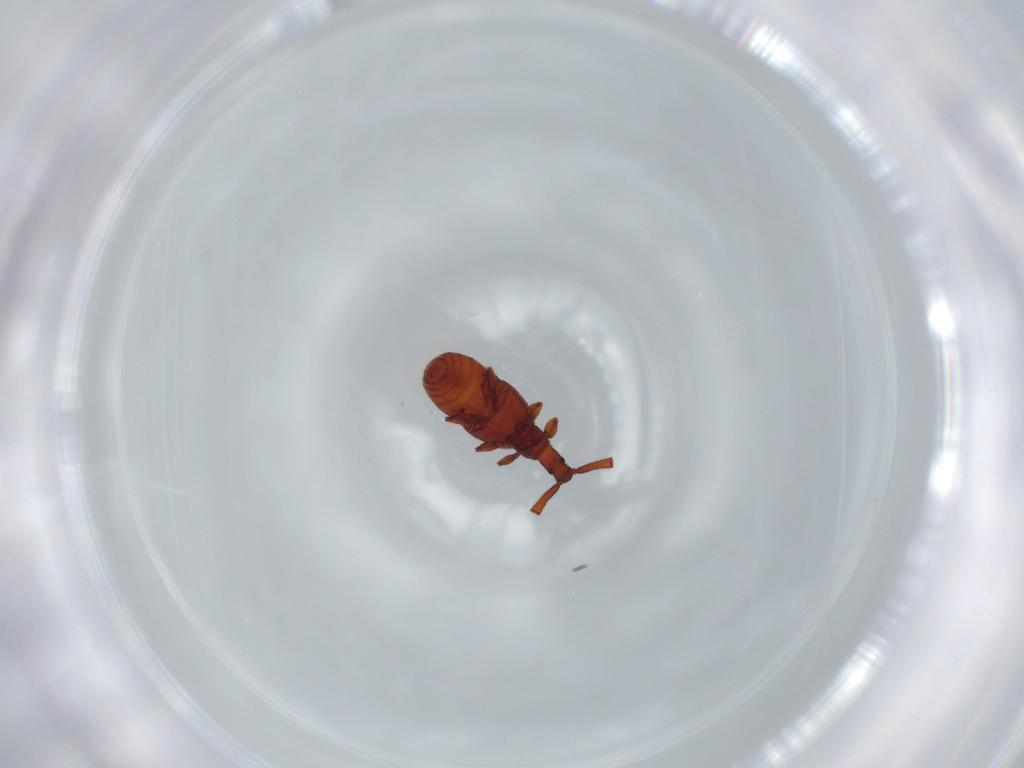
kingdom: Animalia
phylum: Arthropoda
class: Insecta
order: Coleoptera
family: Staphylinidae
